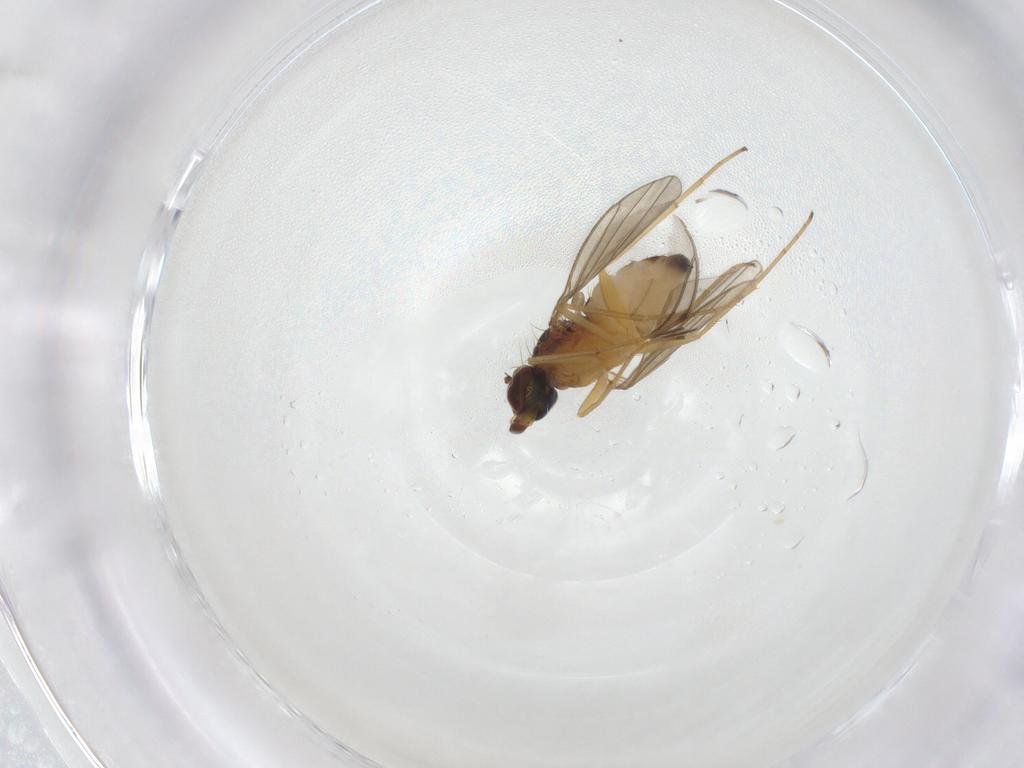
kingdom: Animalia
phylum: Arthropoda
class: Insecta
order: Diptera
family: Dolichopodidae
